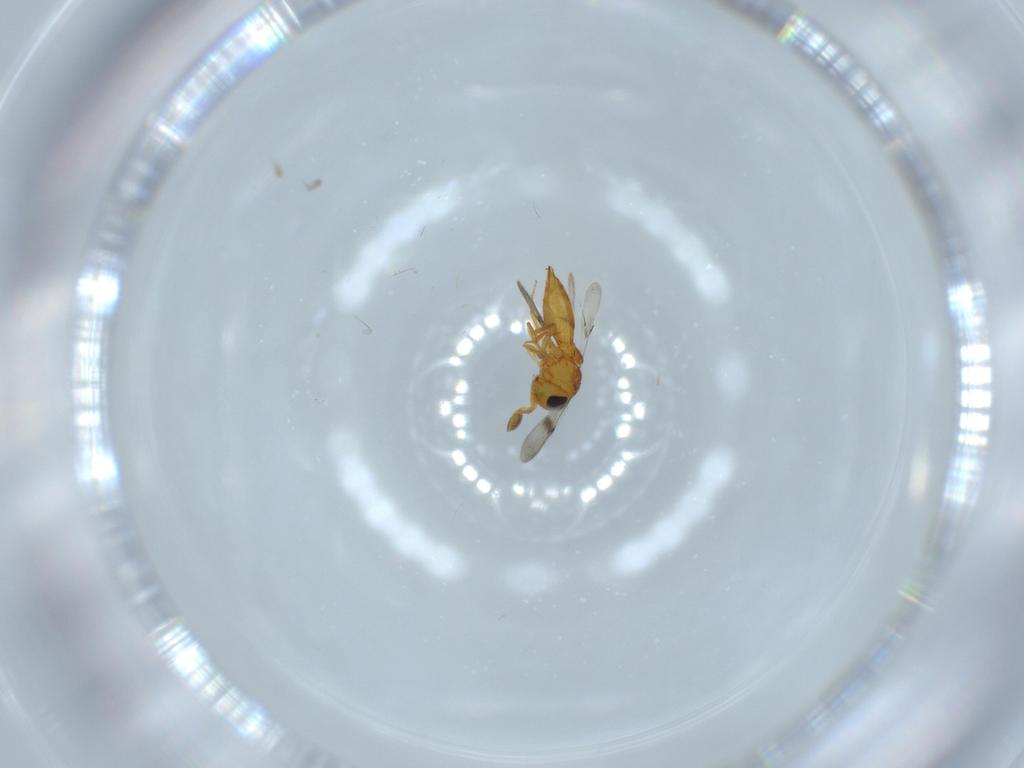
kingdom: Animalia
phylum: Arthropoda
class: Insecta
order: Hymenoptera
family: Scelionidae
